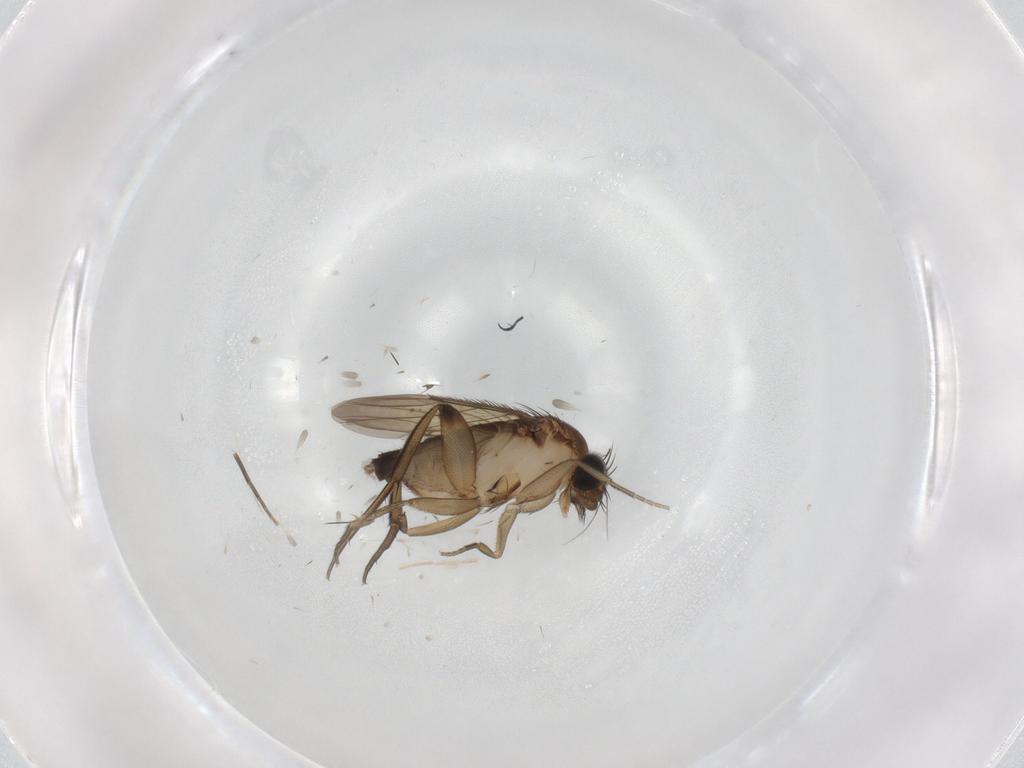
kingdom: Animalia
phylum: Arthropoda
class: Insecta
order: Diptera
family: Phoridae
